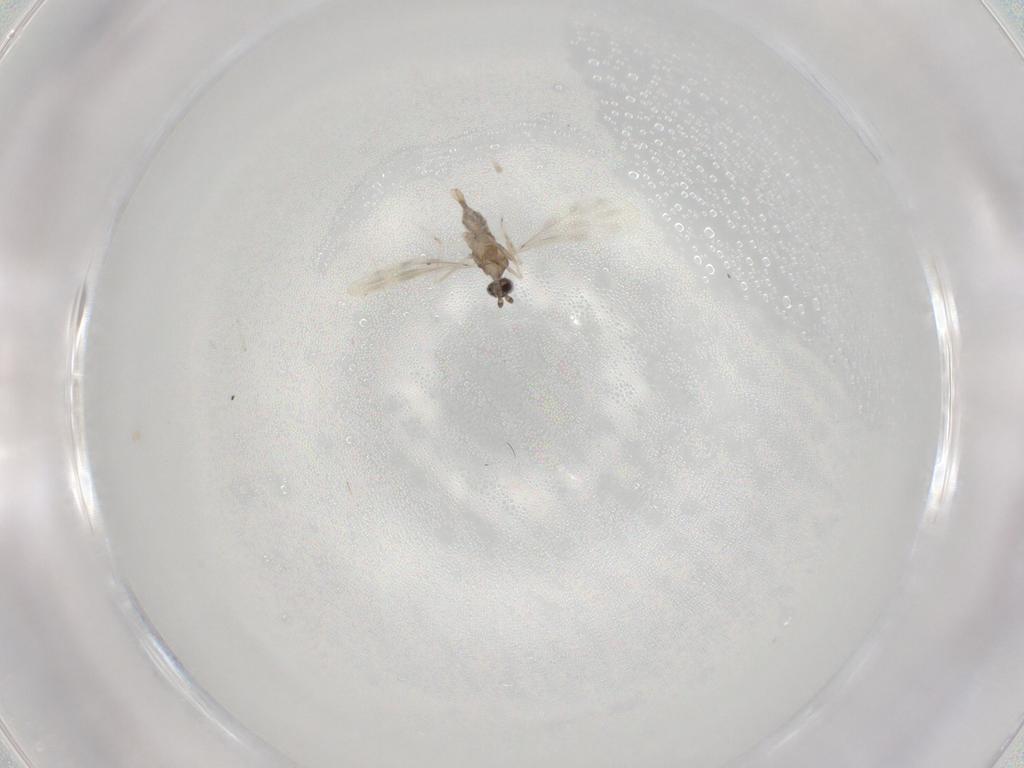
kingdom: Animalia
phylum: Arthropoda
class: Insecta
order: Diptera
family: Cecidomyiidae
